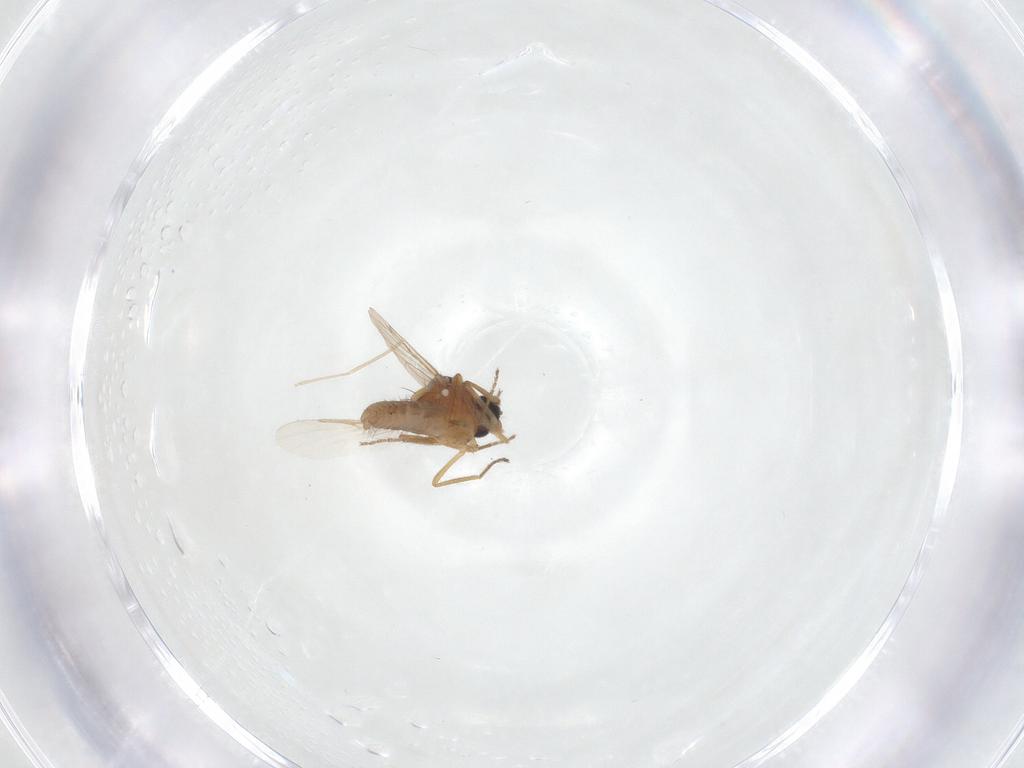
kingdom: Animalia
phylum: Arthropoda
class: Insecta
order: Diptera
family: Ceratopogonidae
